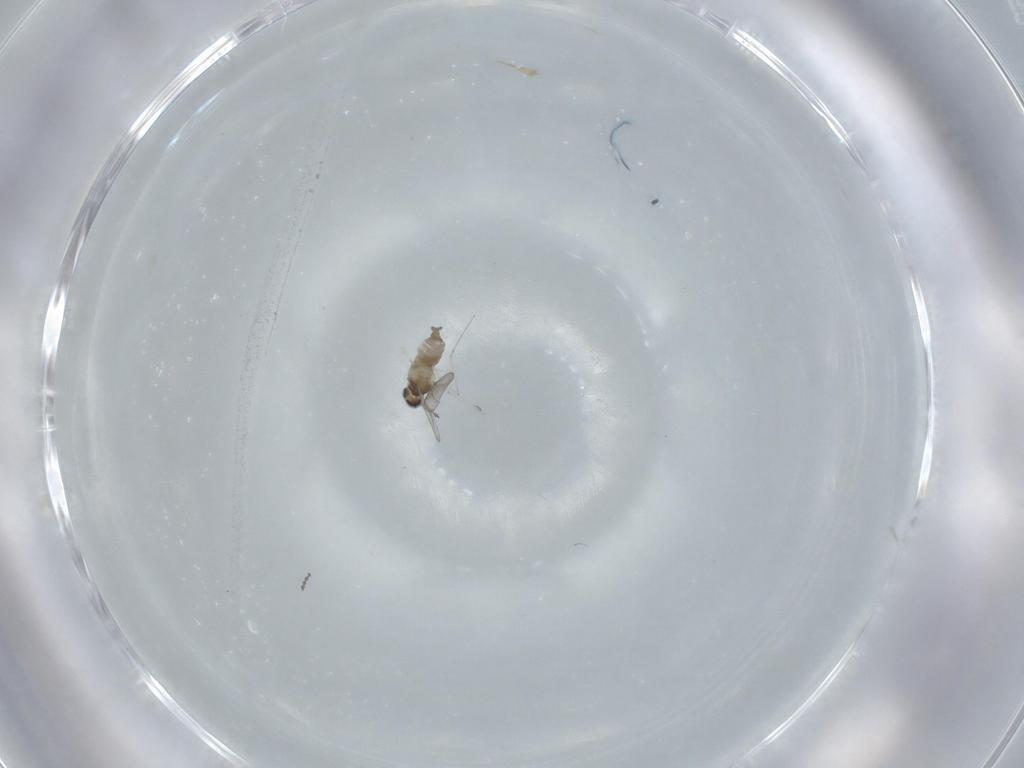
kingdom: Animalia
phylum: Arthropoda
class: Insecta
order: Diptera
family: Cecidomyiidae
